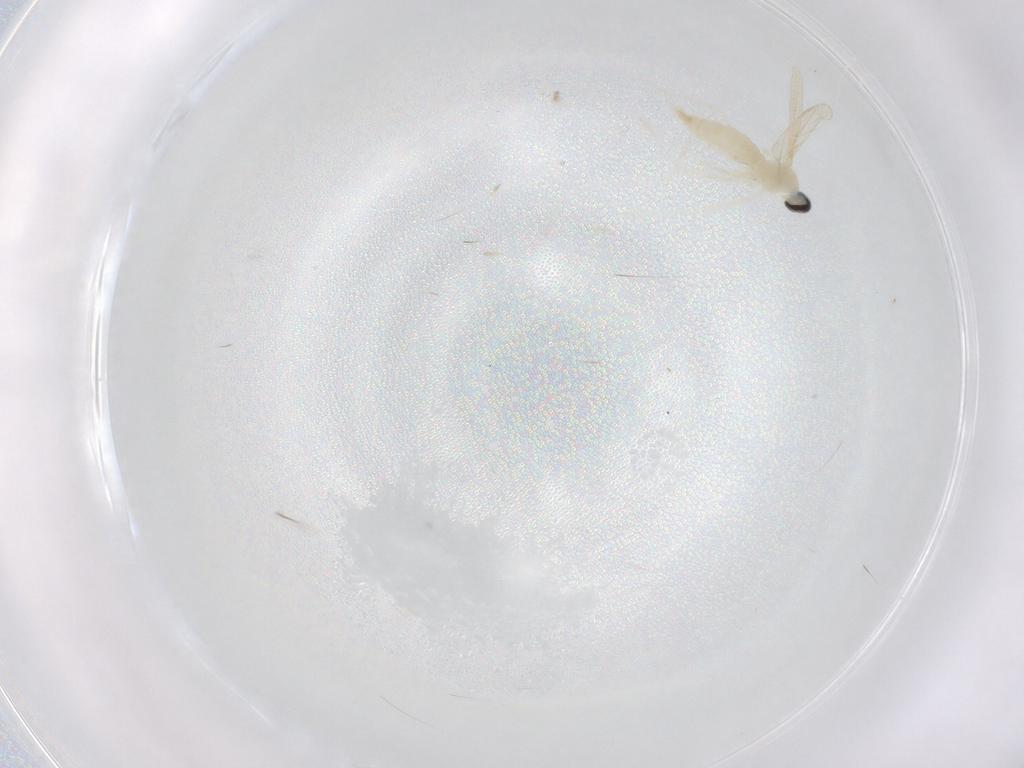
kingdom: Animalia
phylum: Arthropoda
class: Insecta
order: Diptera
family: Cecidomyiidae
